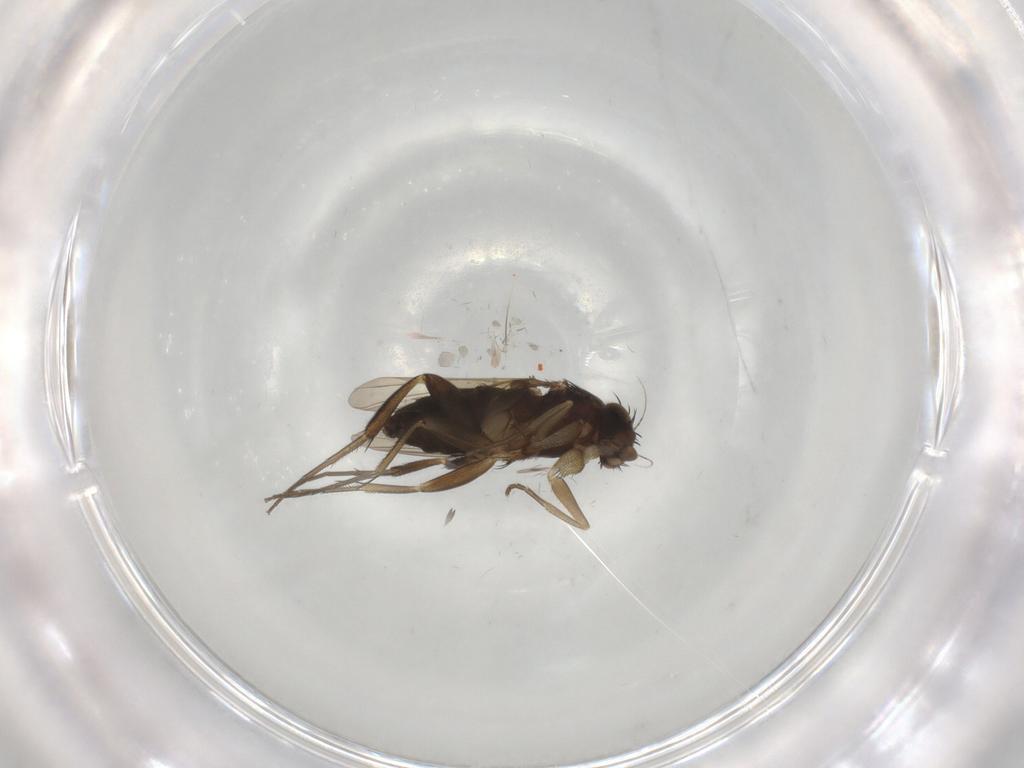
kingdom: Animalia
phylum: Arthropoda
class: Insecta
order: Diptera
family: Phoridae
